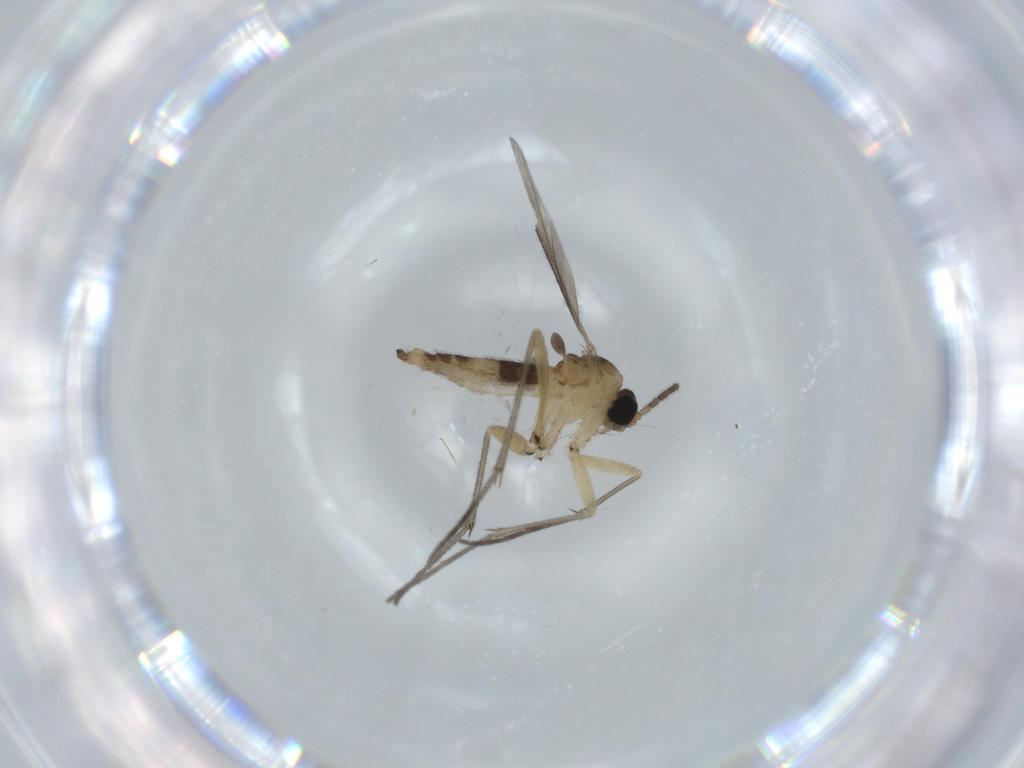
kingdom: Animalia
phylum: Arthropoda
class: Insecta
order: Diptera
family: Sciaridae
